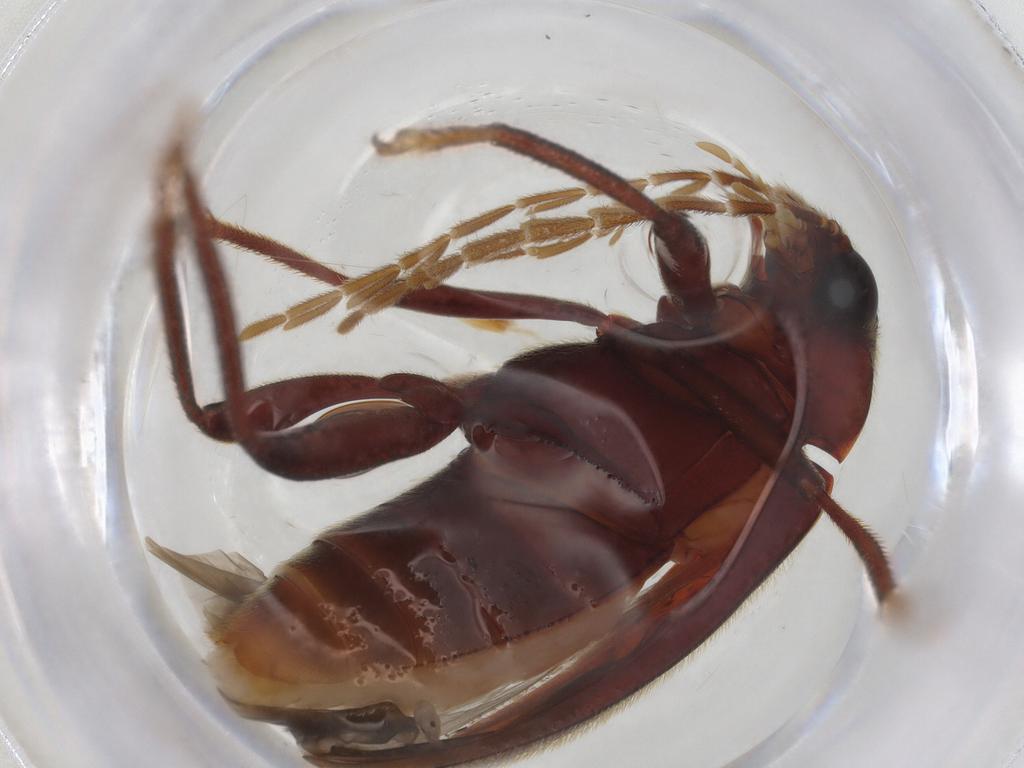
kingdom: Animalia
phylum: Arthropoda
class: Insecta
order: Coleoptera
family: Ptilodactylidae
